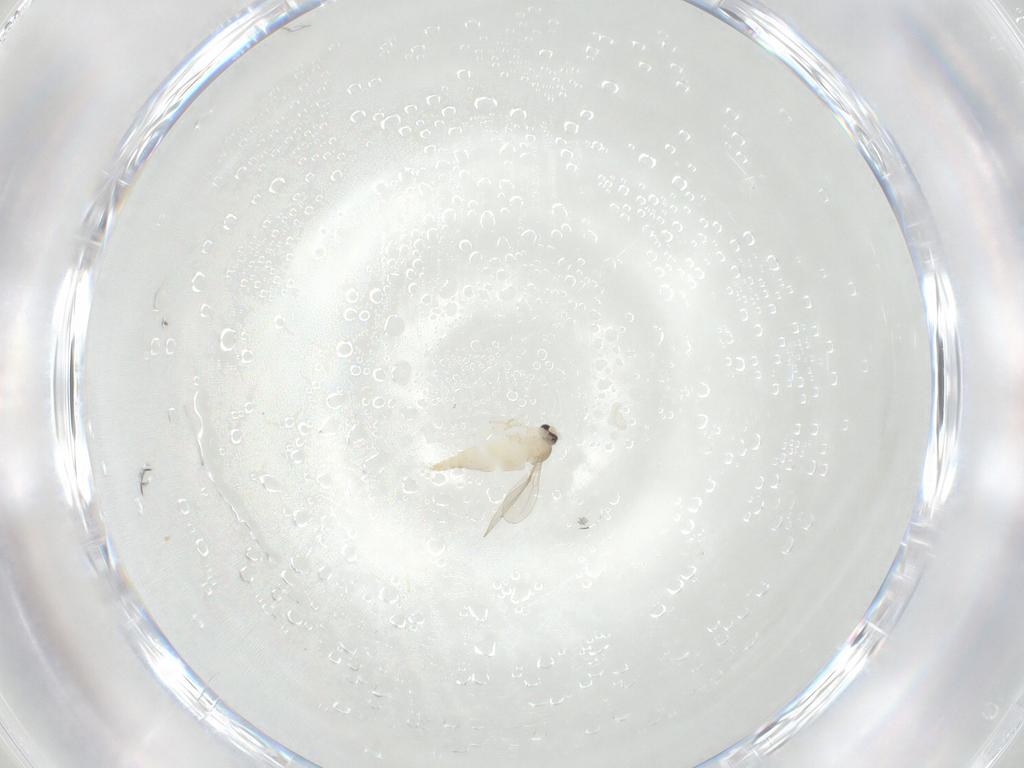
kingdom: Animalia
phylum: Arthropoda
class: Insecta
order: Diptera
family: Cecidomyiidae
